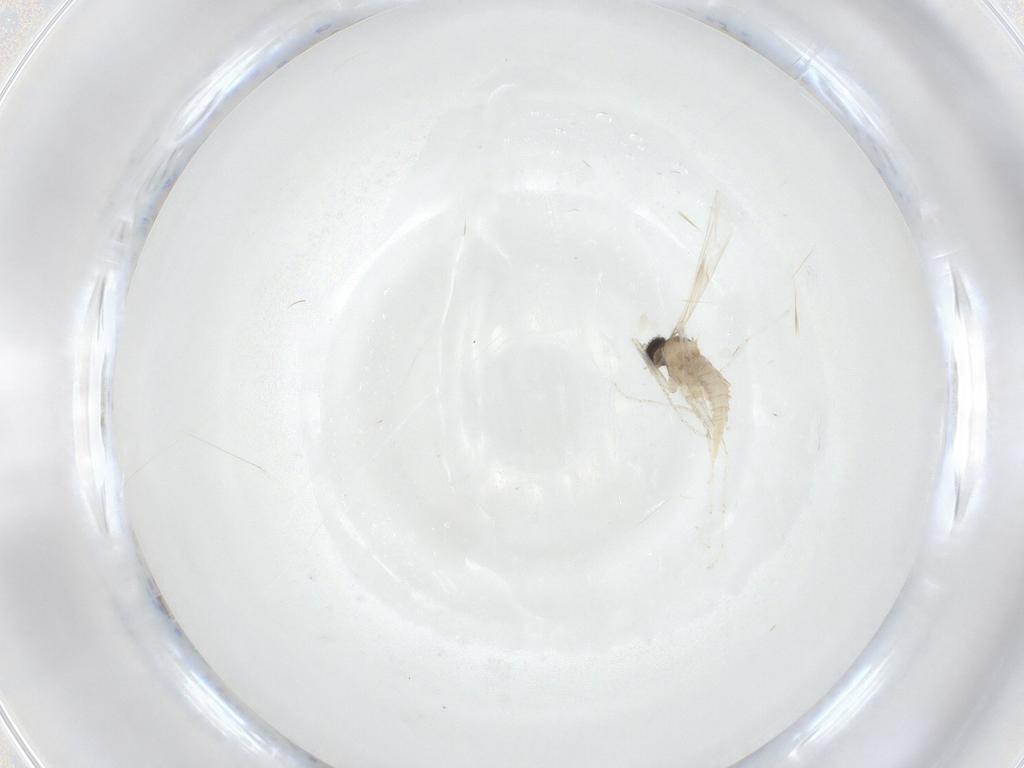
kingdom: Animalia
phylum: Arthropoda
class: Insecta
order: Diptera
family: Cecidomyiidae
